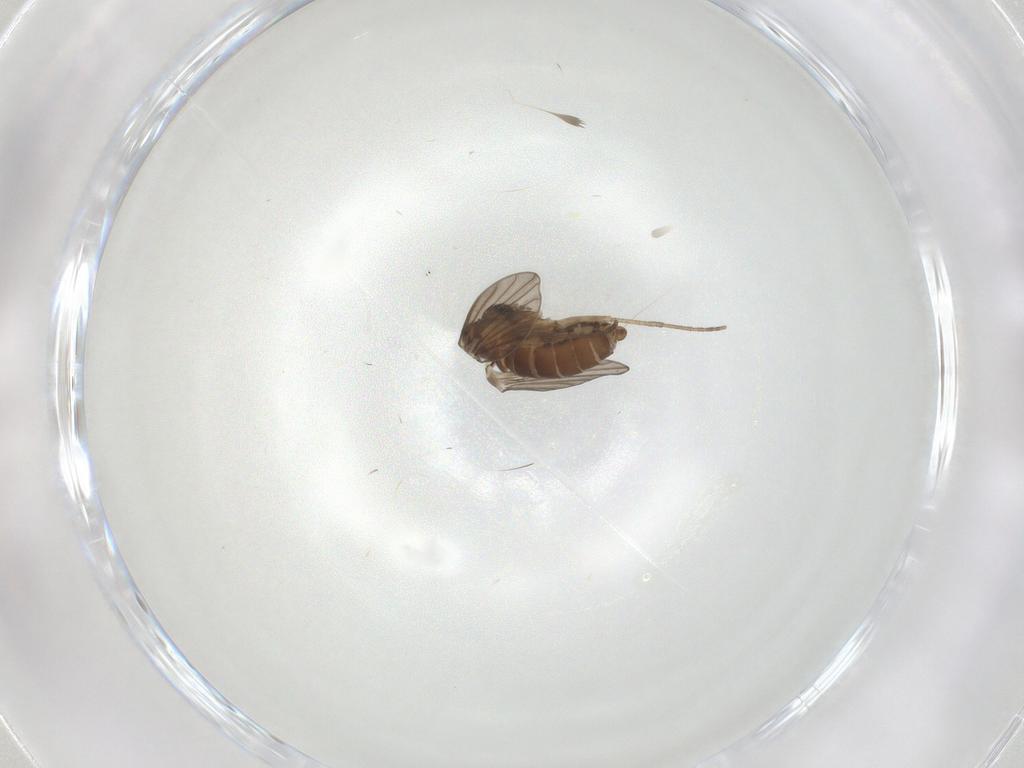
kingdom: Animalia
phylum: Arthropoda
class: Insecta
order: Diptera
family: Psychodidae
